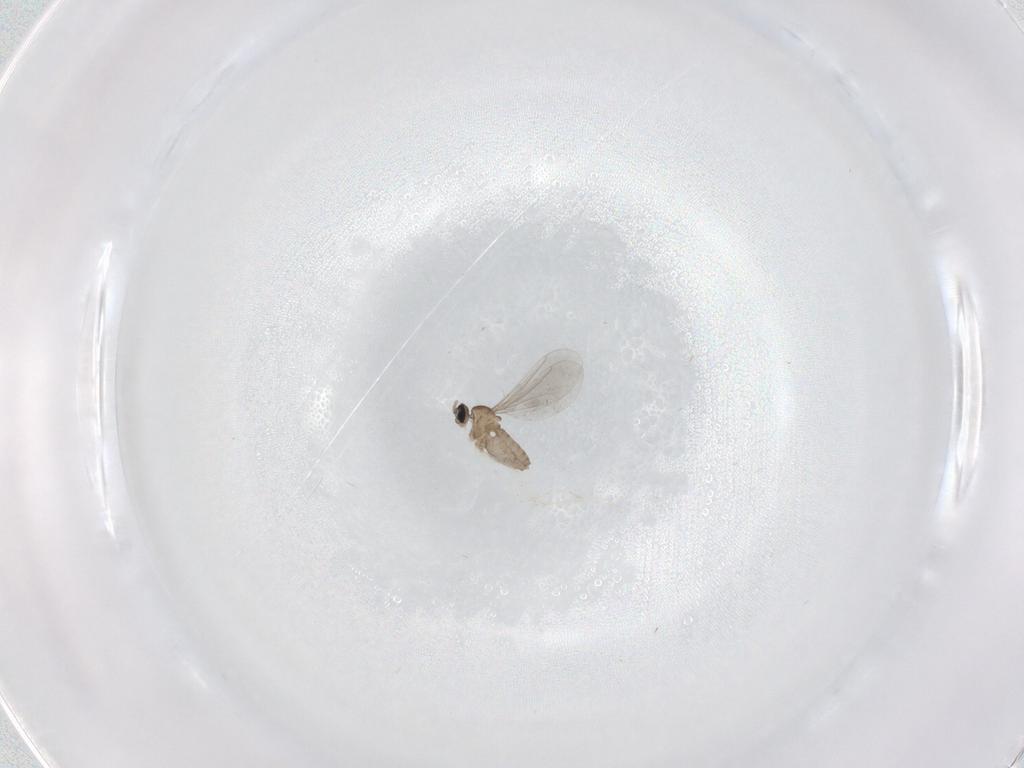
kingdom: Animalia
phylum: Arthropoda
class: Insecta
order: Diptera
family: Cecidomyiidae
